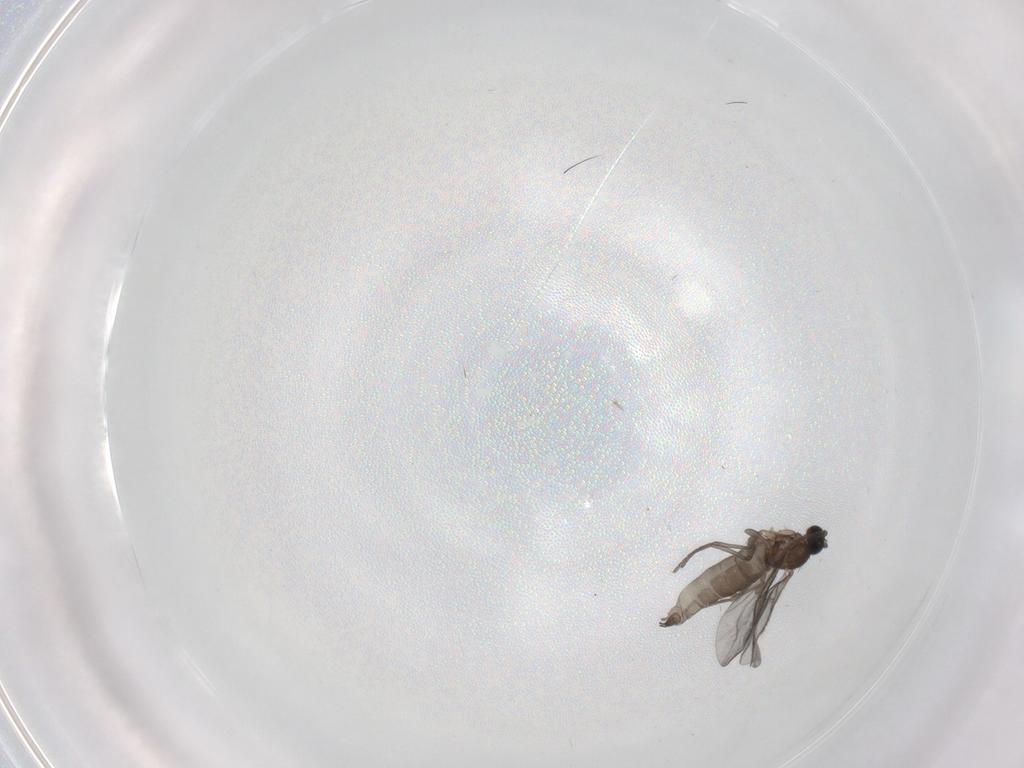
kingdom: Animalia
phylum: Arthropoda
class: Insecta
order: Diptera
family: Sciaridae
